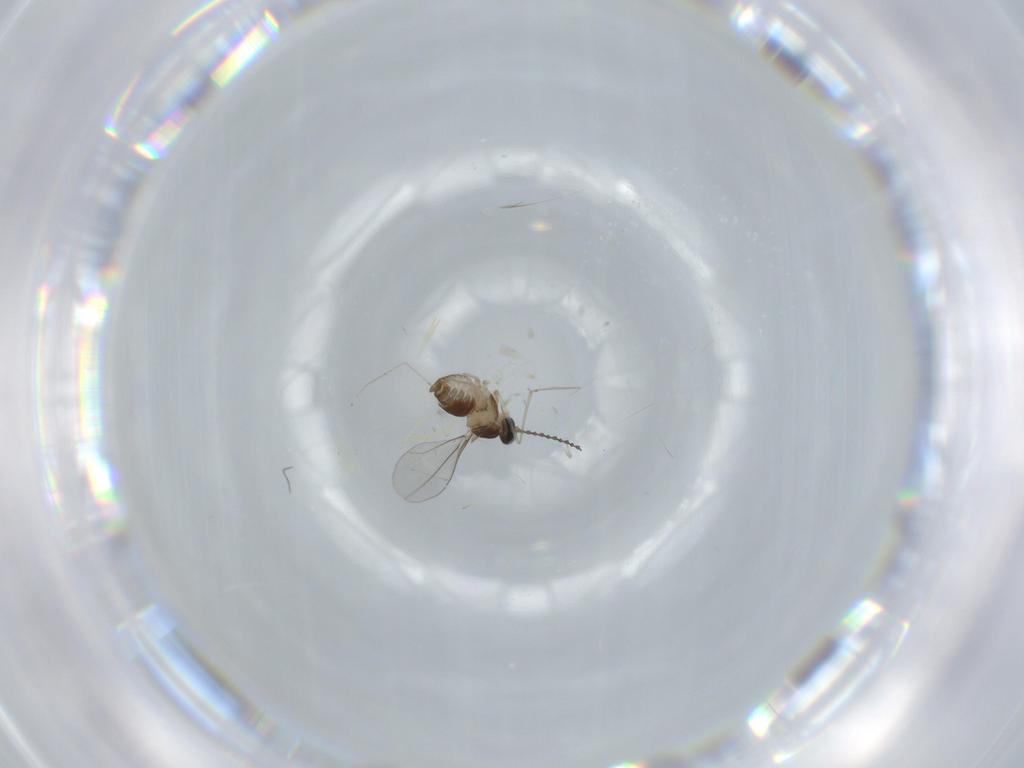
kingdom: Animalia
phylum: Arthropoda
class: Insecta
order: Diptera
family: Cecidomyiidae
